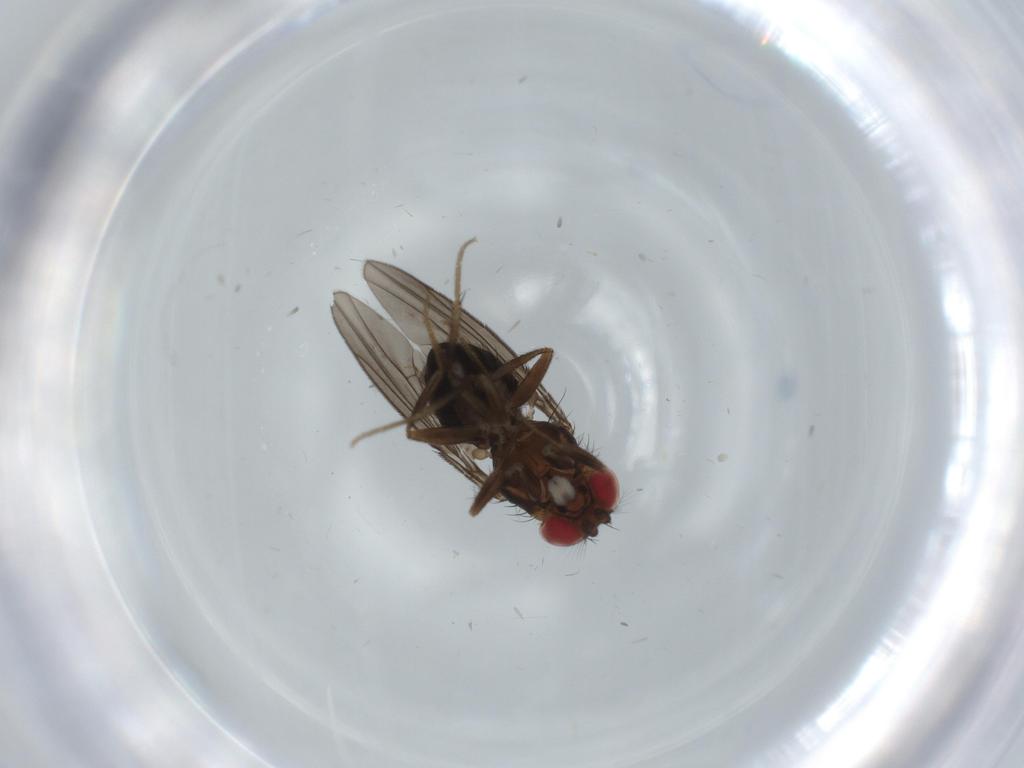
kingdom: Animalia
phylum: Arthropoda
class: Insecta
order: Diptera
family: Drosophilidae
